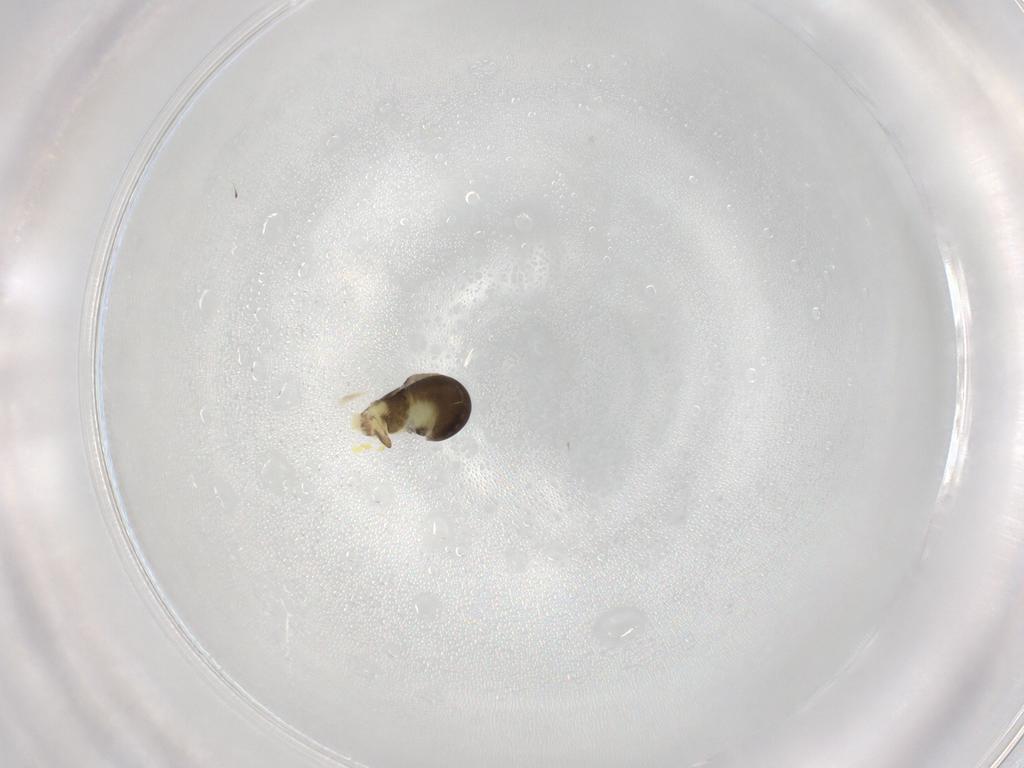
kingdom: Animalia
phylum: Arthropoda
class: Insecta
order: Hymenoptera
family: Dryinidae
